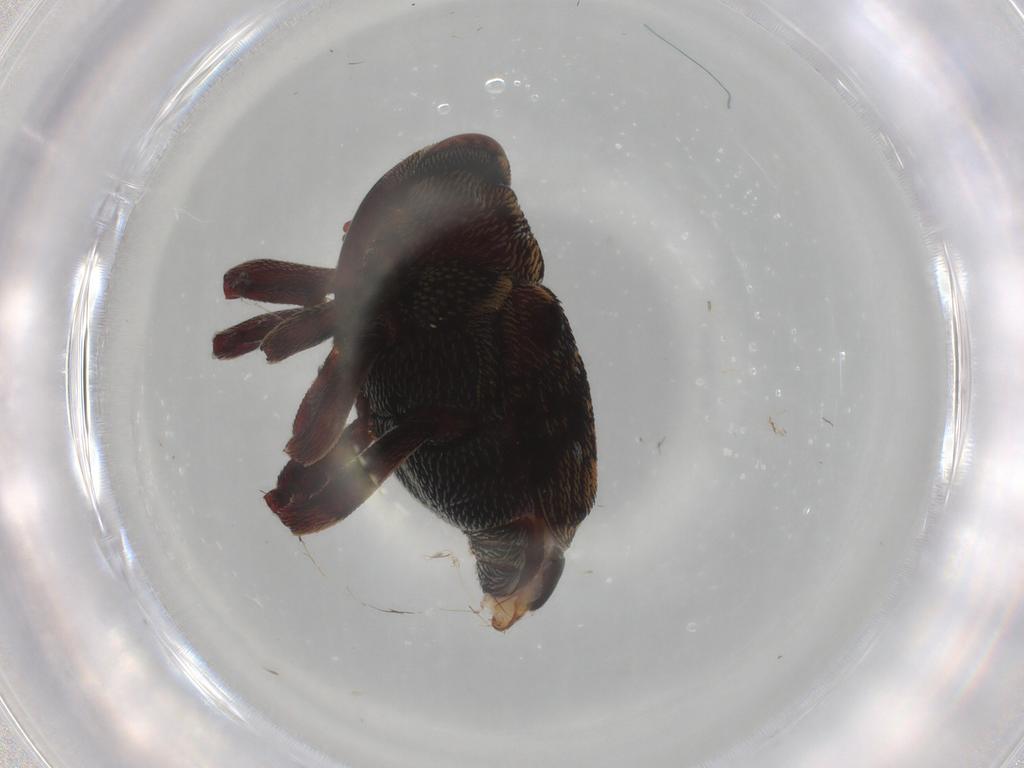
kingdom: Animalia
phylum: Arthropoda
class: Insecta
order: Coleoptera
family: Curculionidae
